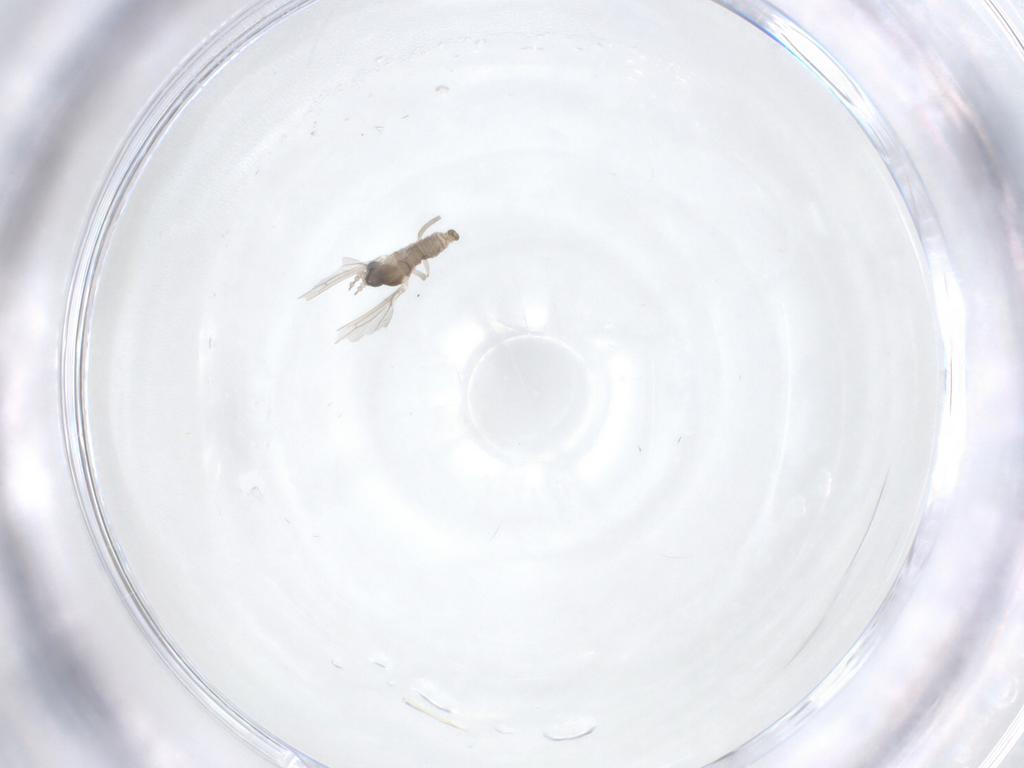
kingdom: Animalia
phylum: Arthropoda
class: Insecta
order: Diptera
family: Cecidomyiidae
